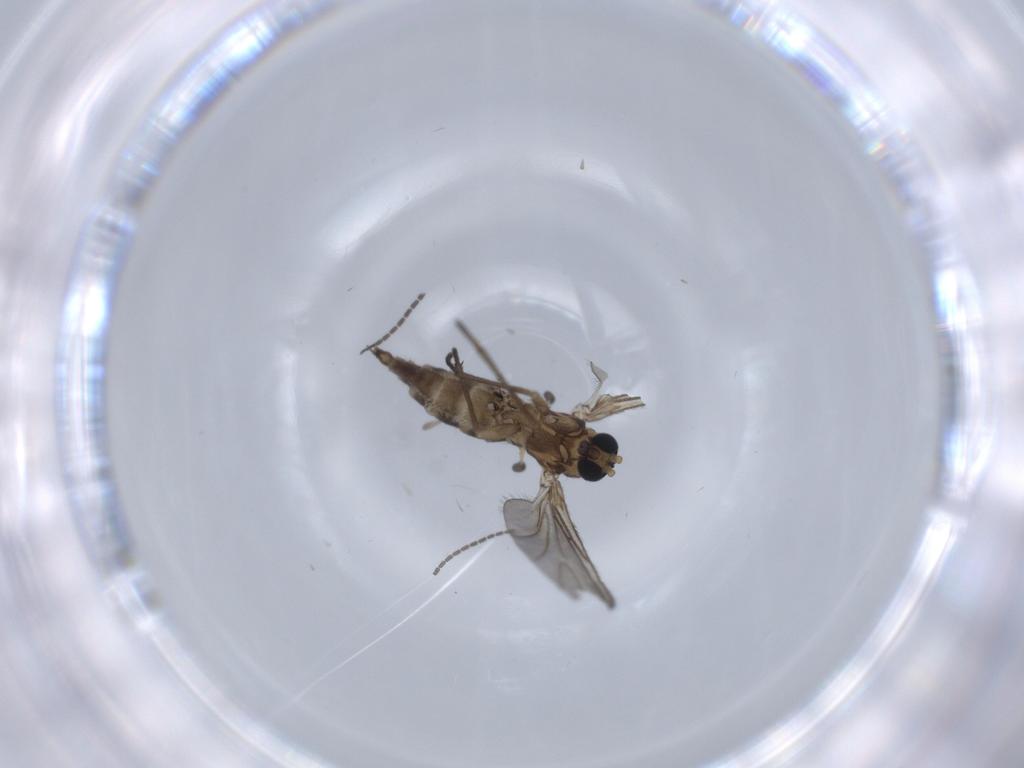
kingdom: Animalia
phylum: Arthropoda
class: Insecta
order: Diptera
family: Sciaridae
